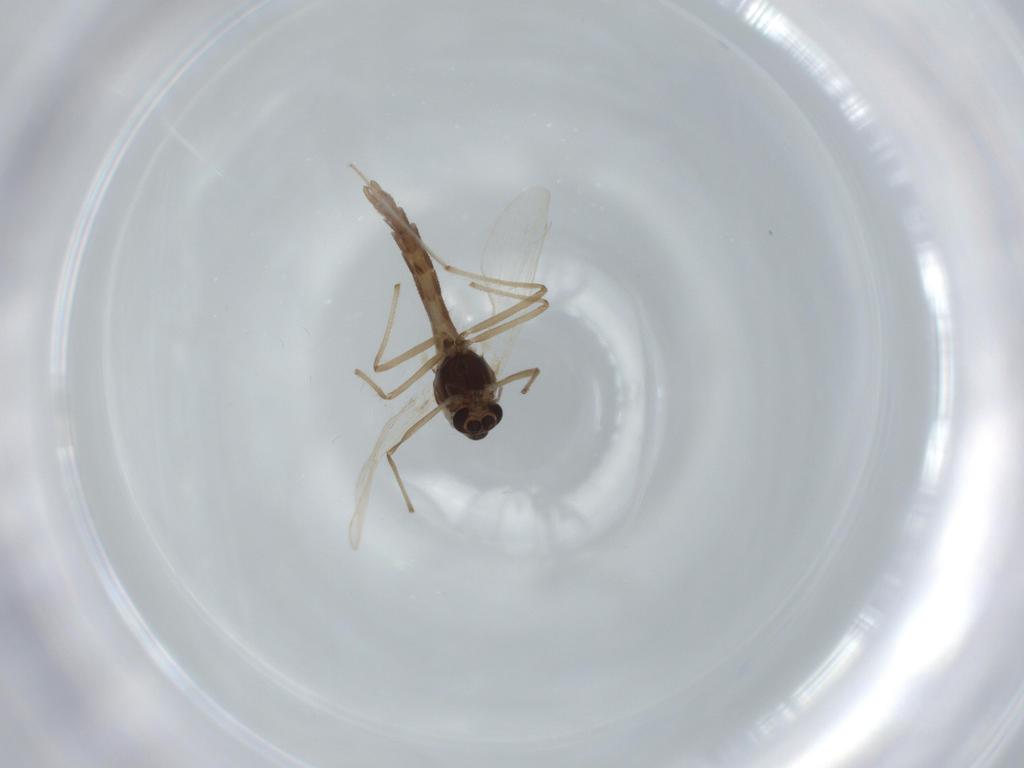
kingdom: Animalia
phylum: Arthropoda
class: Insecta
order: Diptera
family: Chironomidae
